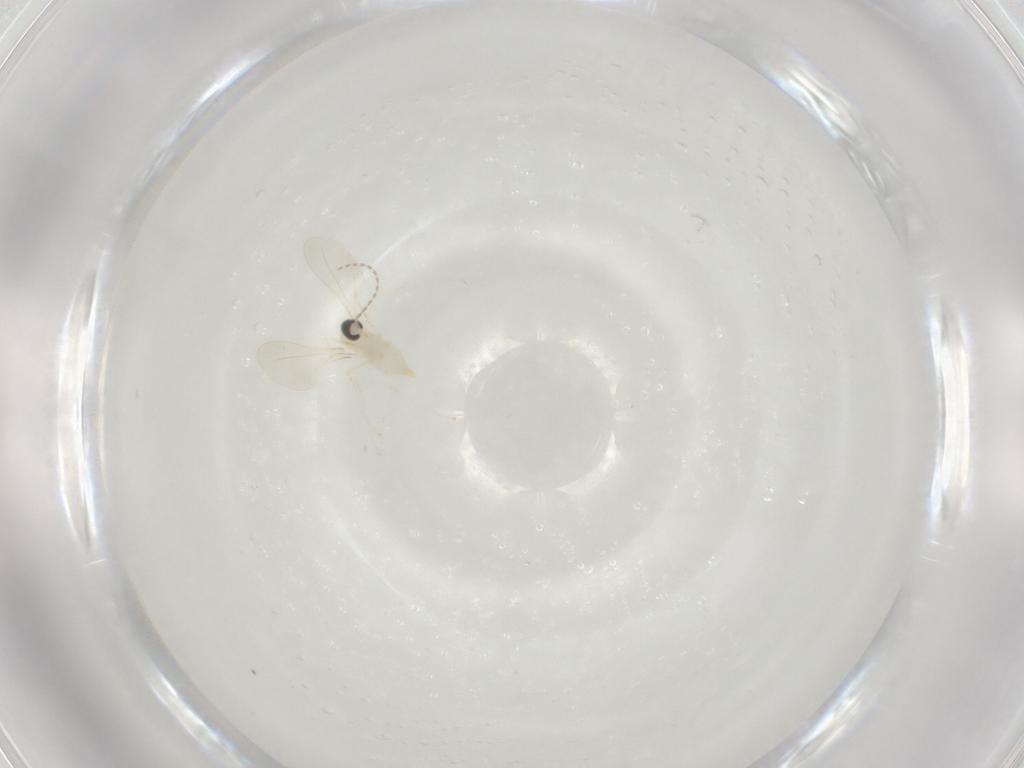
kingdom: Animalia
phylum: Arthropoda
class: Insecta
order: Diptera
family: Cecidomyiidae
